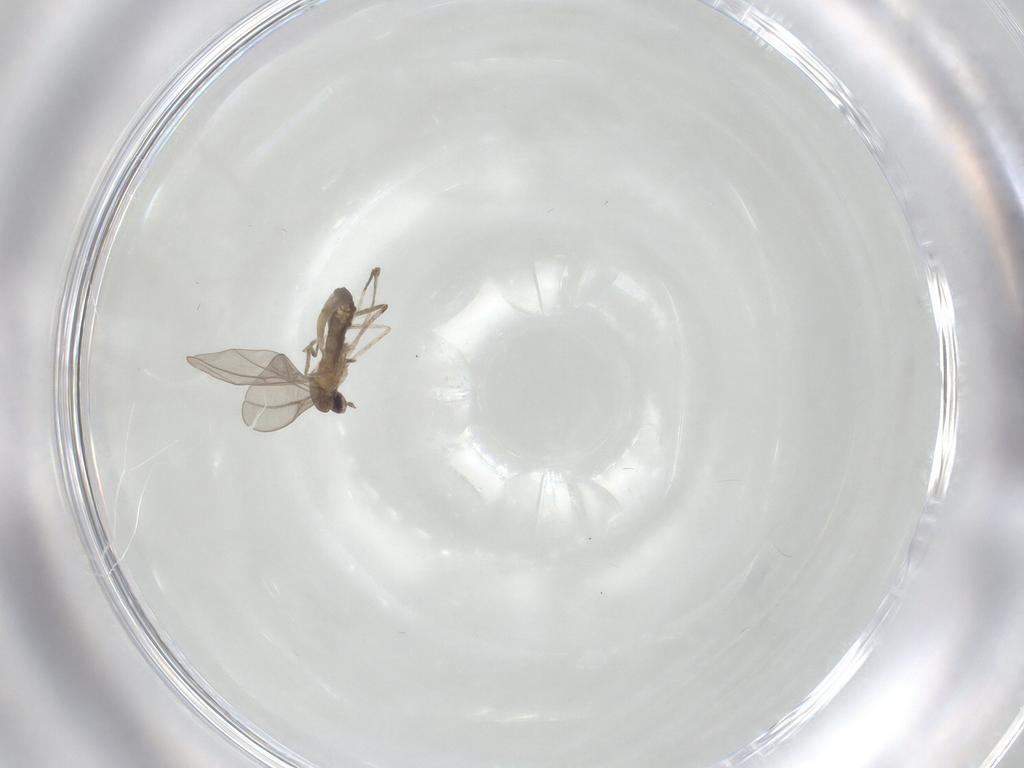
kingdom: Animalia
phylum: Arthropoda
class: Insecta
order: Diptera
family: Cecidomyiidae
